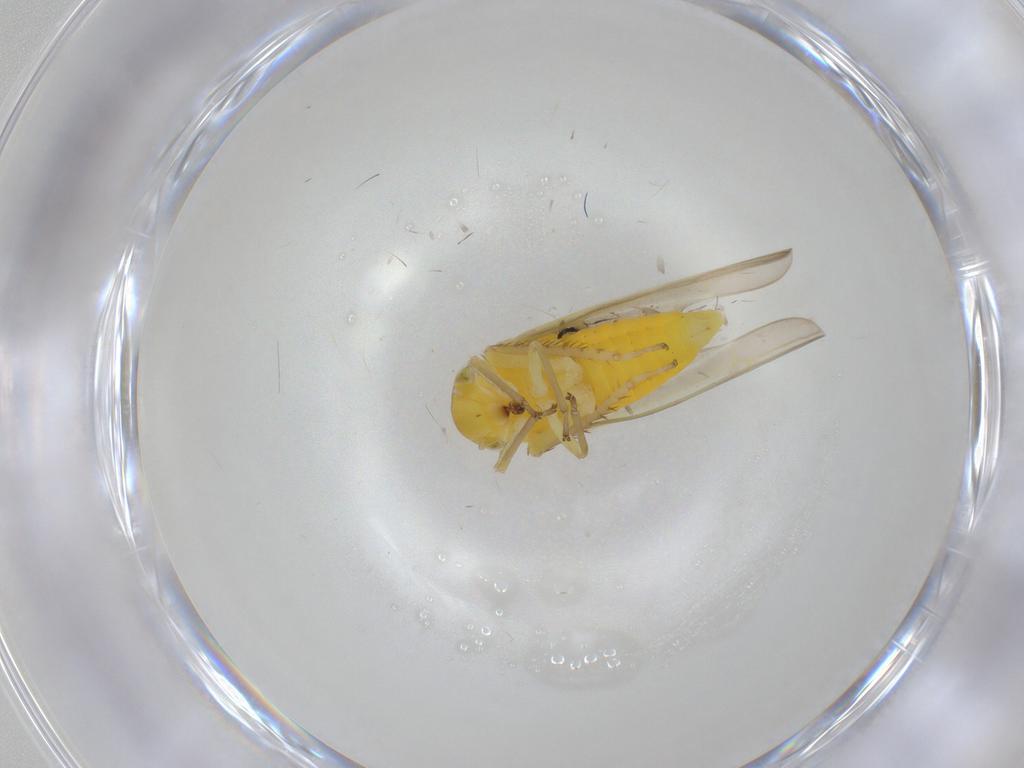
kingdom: Animalia
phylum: Arthropoda
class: Insecta
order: Hemiptera
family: Cicadellidae
